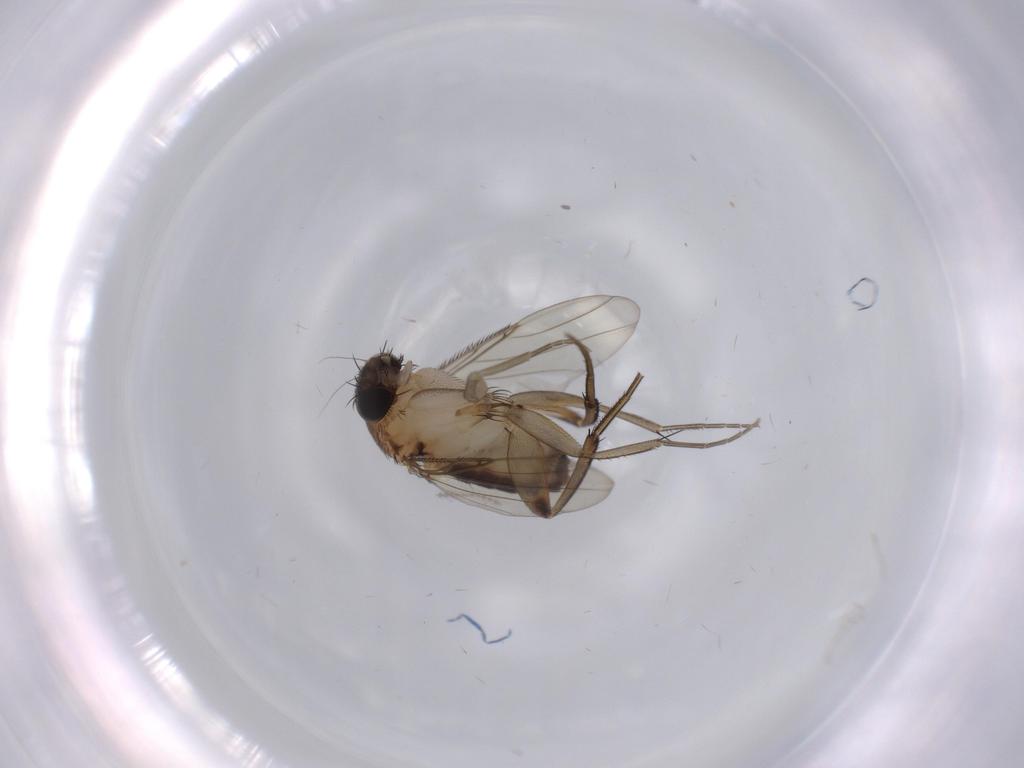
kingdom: Animalia
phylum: Arthropoda
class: Insecta
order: Diptera
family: Ceratopogonidae
